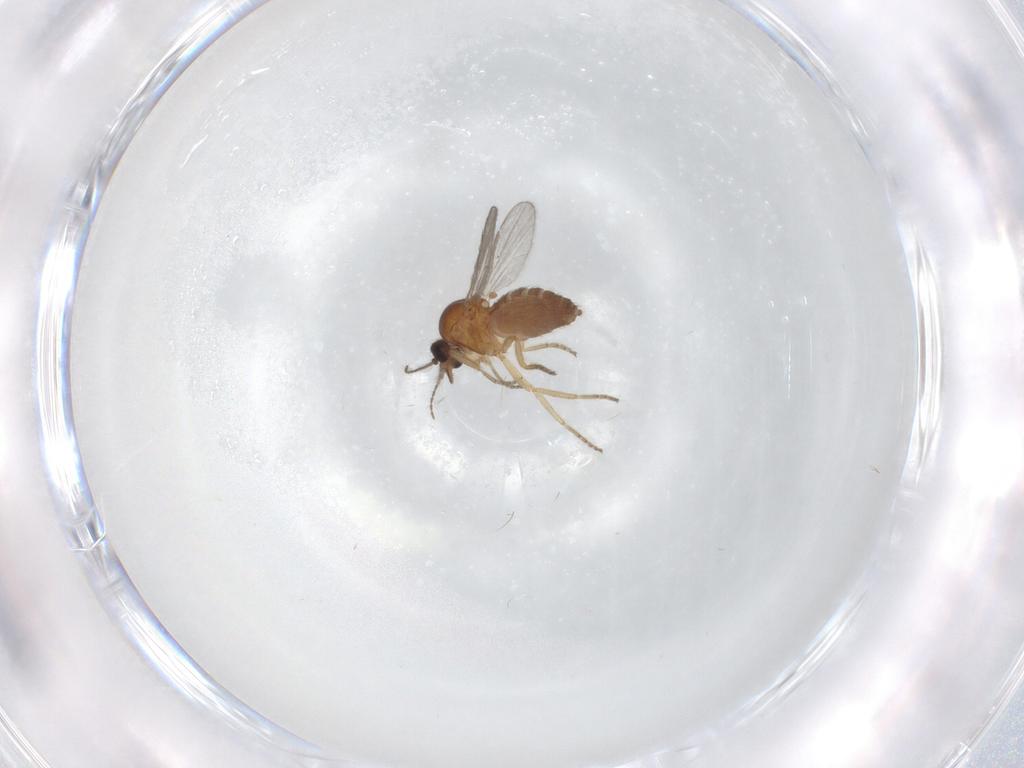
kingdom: Animalia
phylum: Arthropoda
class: Insecta
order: Diptera
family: Ceratopogonidae
